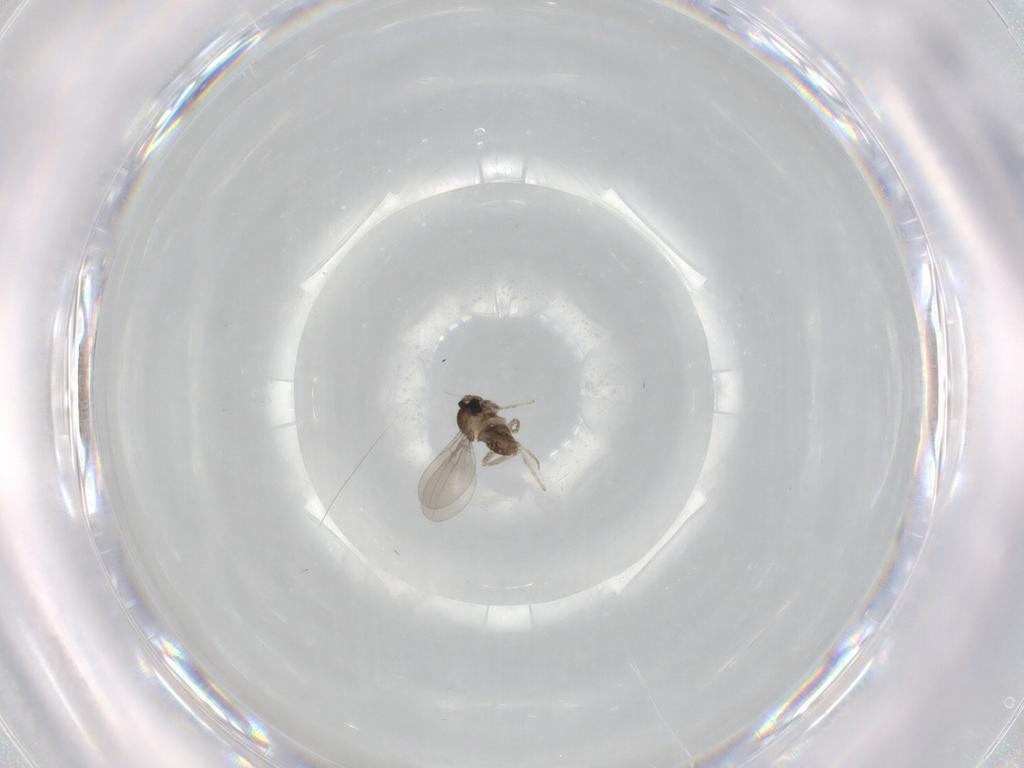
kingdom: Animalia
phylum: Arthropoda
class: Insecta
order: Diptera
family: Cecidomyiidae
